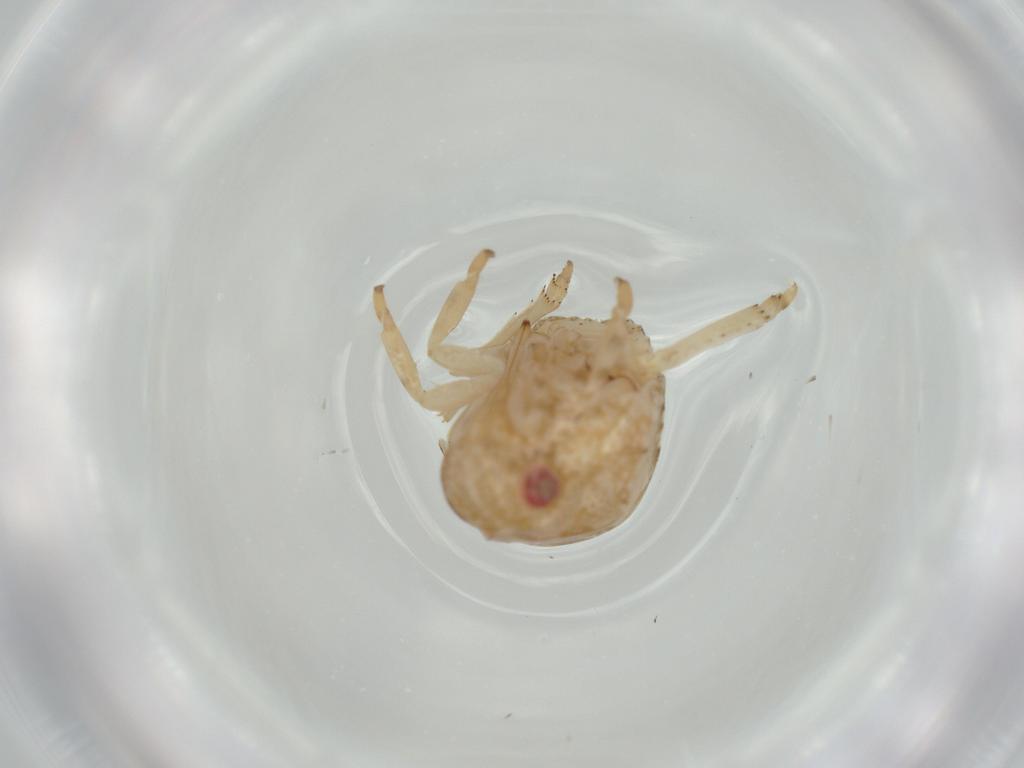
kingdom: Animalia
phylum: Arthropoda
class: Insecta
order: Hemiptera
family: Acanaloniidae
